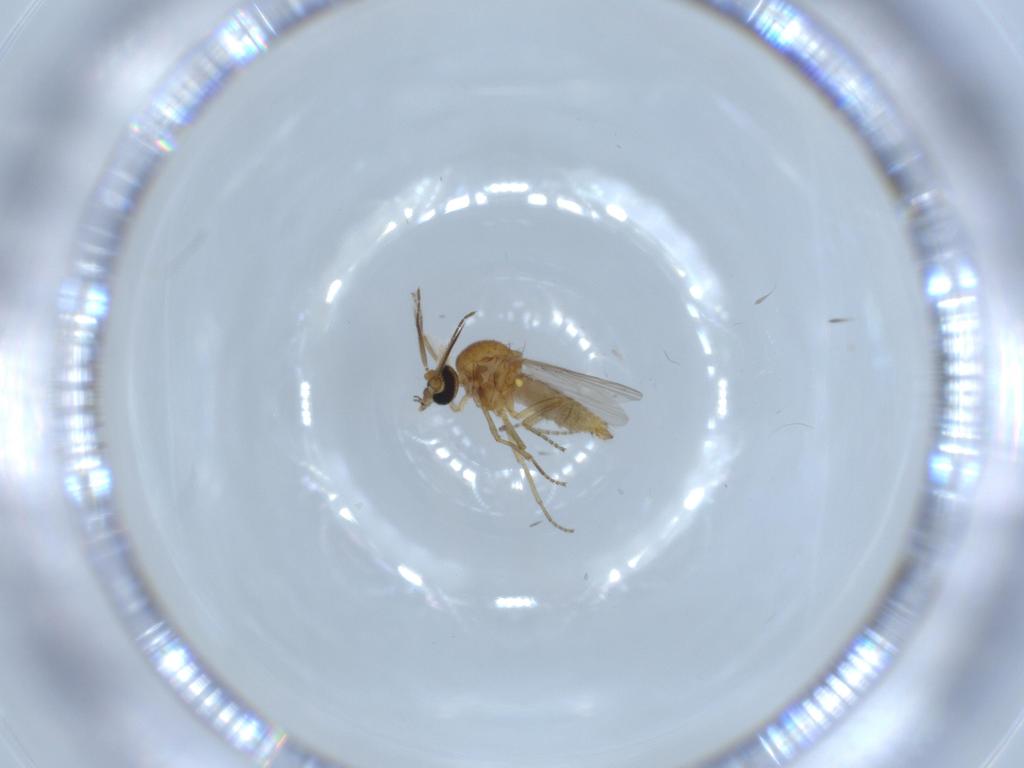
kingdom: Animalia
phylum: Arthropoda
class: Insecta
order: Diptera
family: Ceratopogonidae
